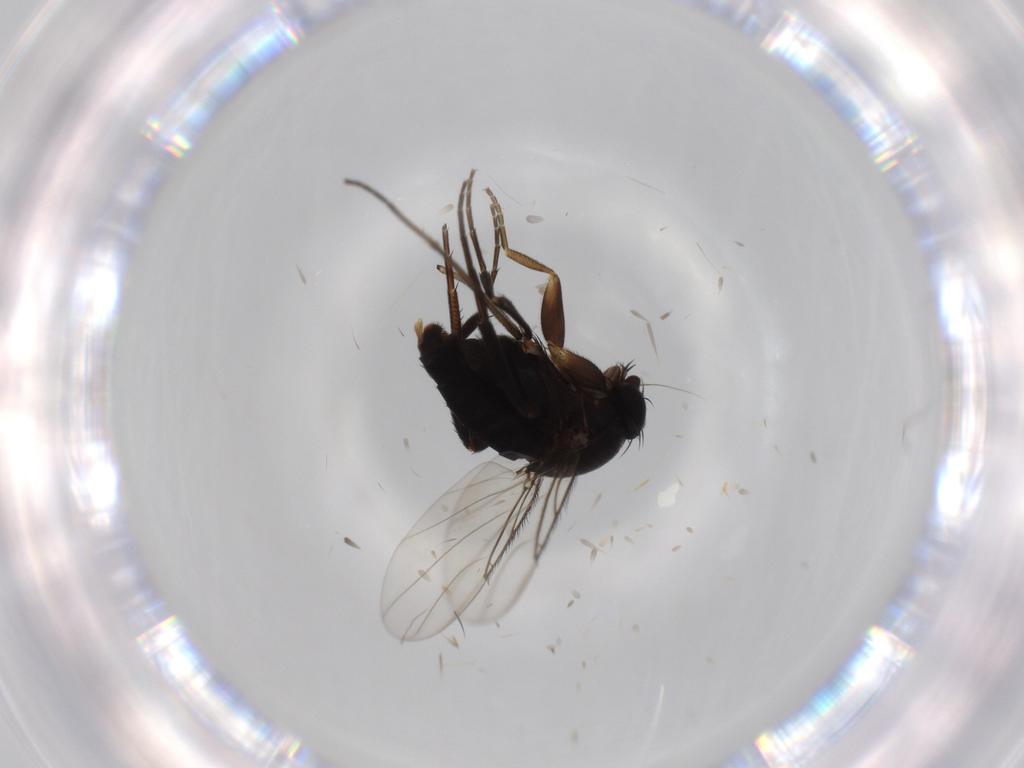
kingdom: Animalia
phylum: Arthropoda
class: Insecta
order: Diptera
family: Phoridae
